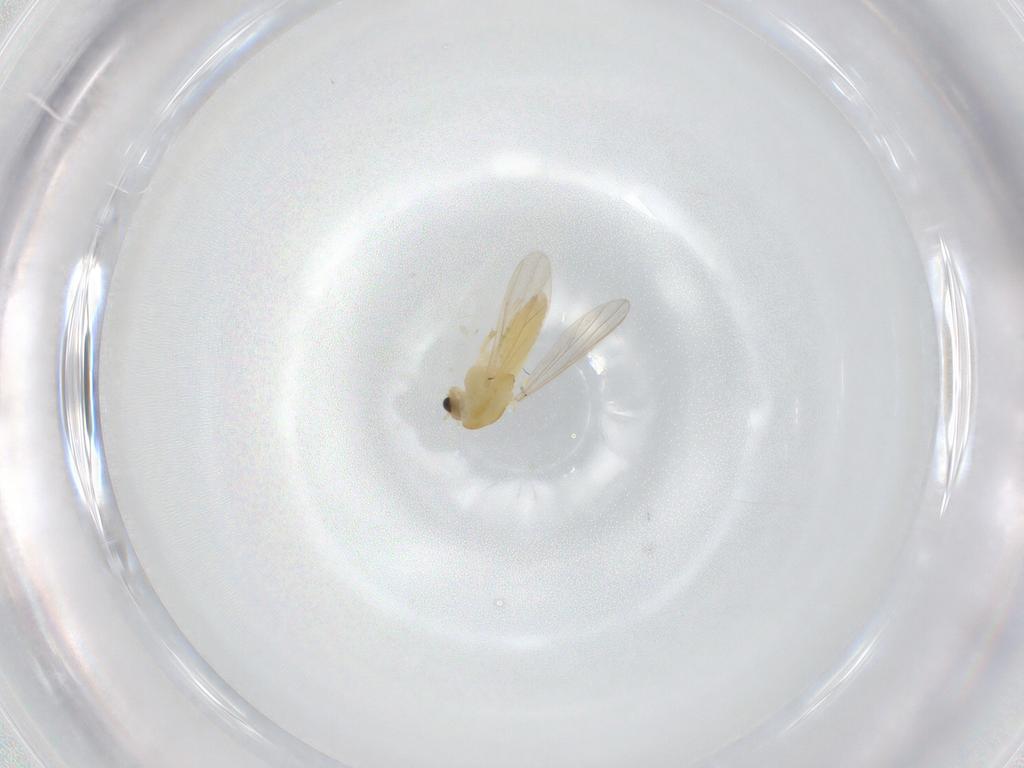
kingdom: Animalia
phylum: Arthropoda
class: Insecta
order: Diptera
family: Chironomidae
